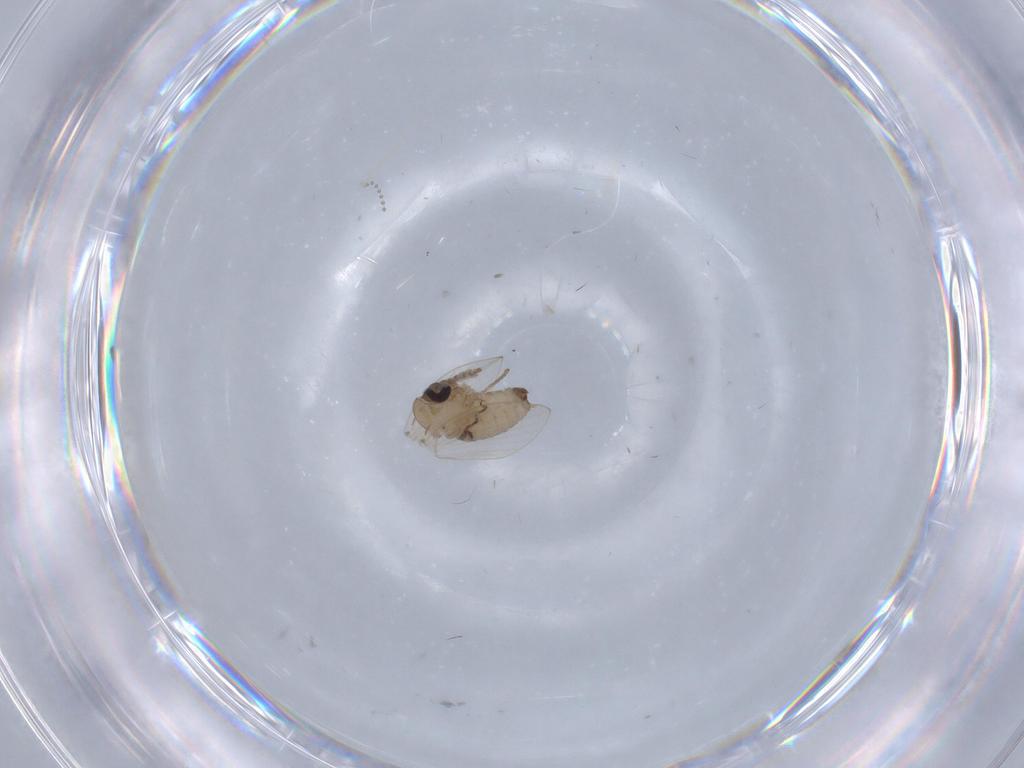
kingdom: Animalia
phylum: Arthropoda
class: Insecta
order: Diptera
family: Psychodidae
